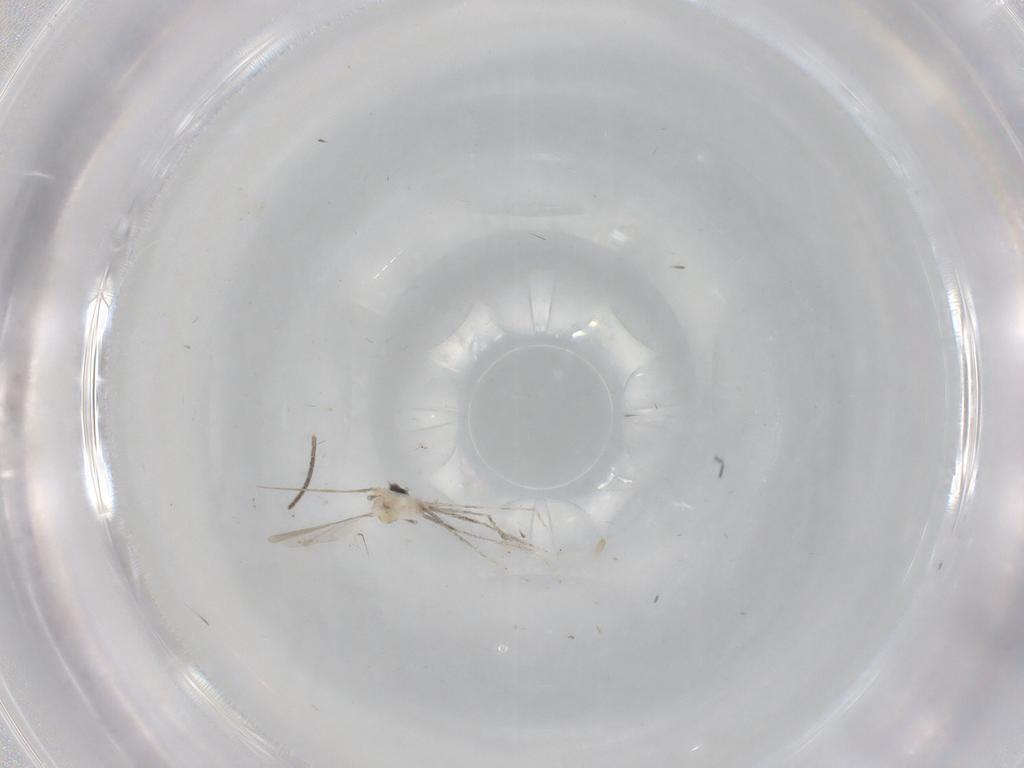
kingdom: Animalia
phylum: Arthropoda
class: Insecta
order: Diptera
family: Cecidomyiidae
